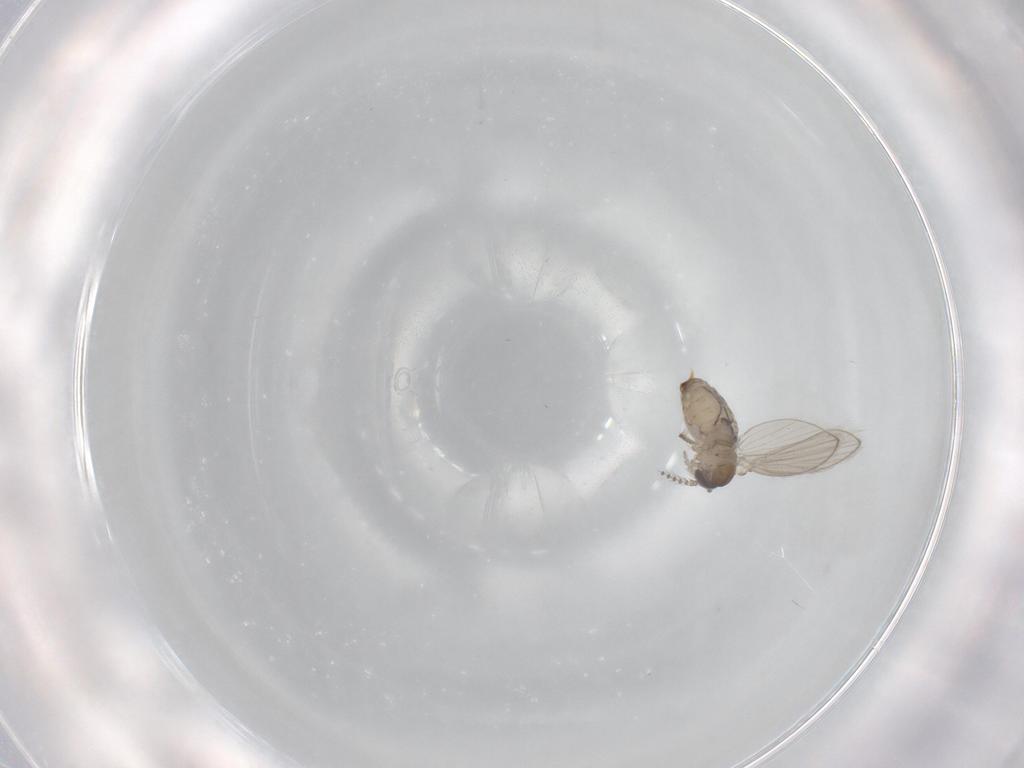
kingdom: Animalia
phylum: Arthropoda
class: Insecta
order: Diptera
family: Psychodidae
